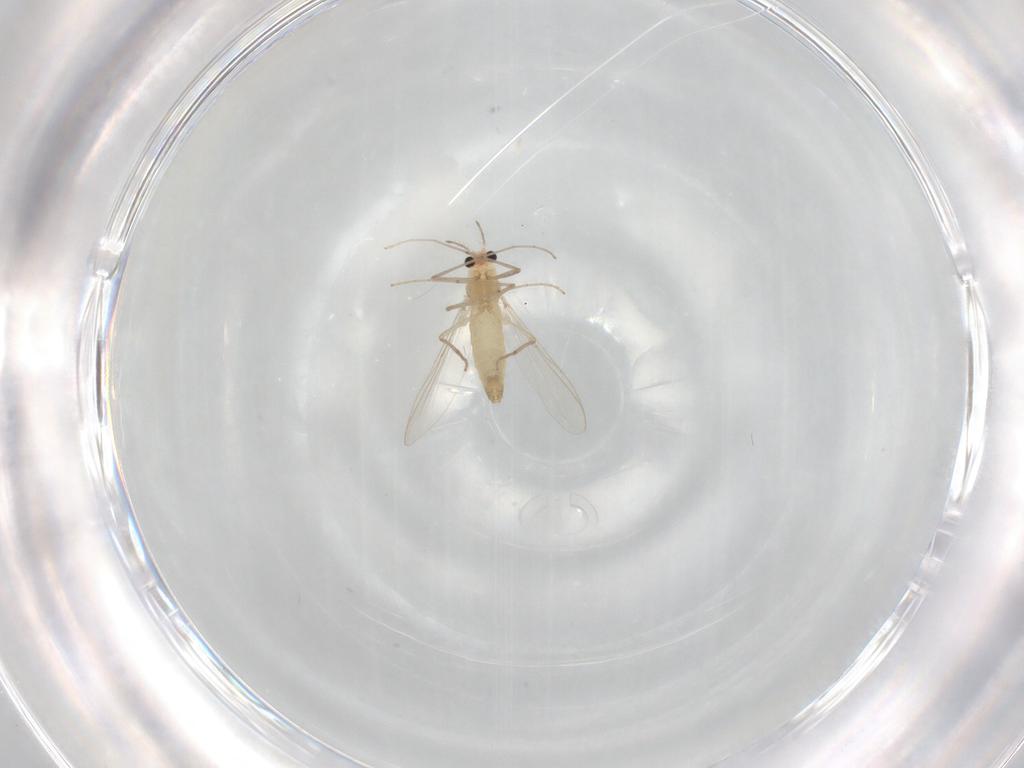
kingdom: Animalia
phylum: Arthropoda
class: Insecta
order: Diptera
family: Chironomidae
